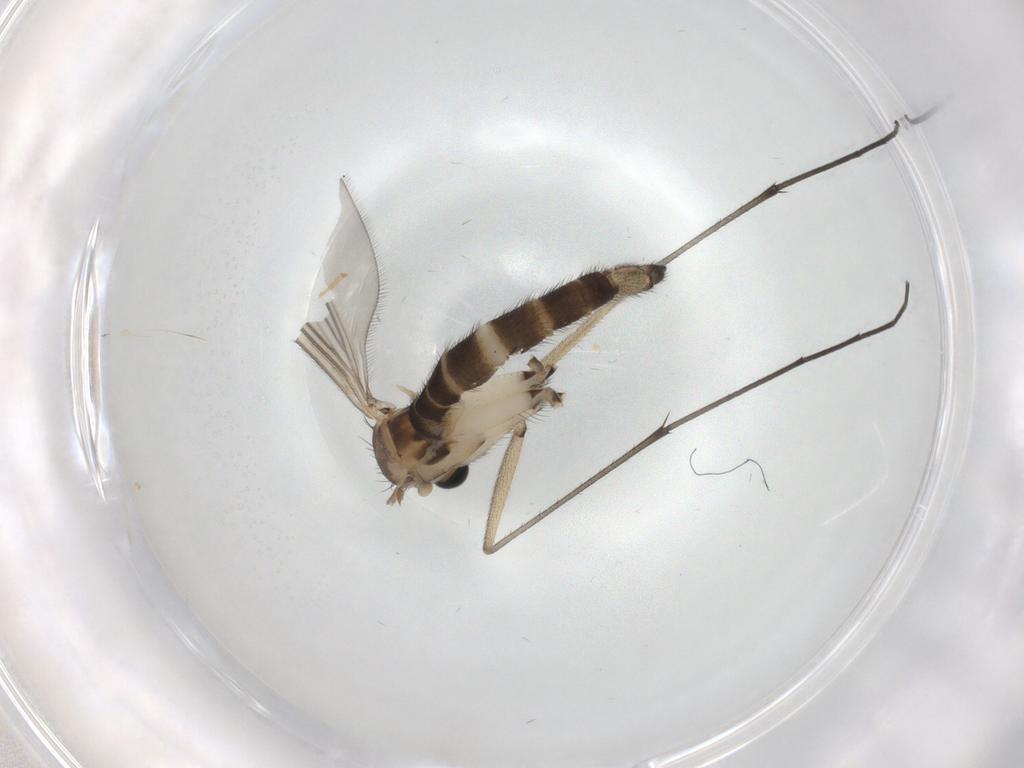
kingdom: Animalia
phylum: Arthropoda
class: Insecta
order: Diptera
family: Sciaridae
